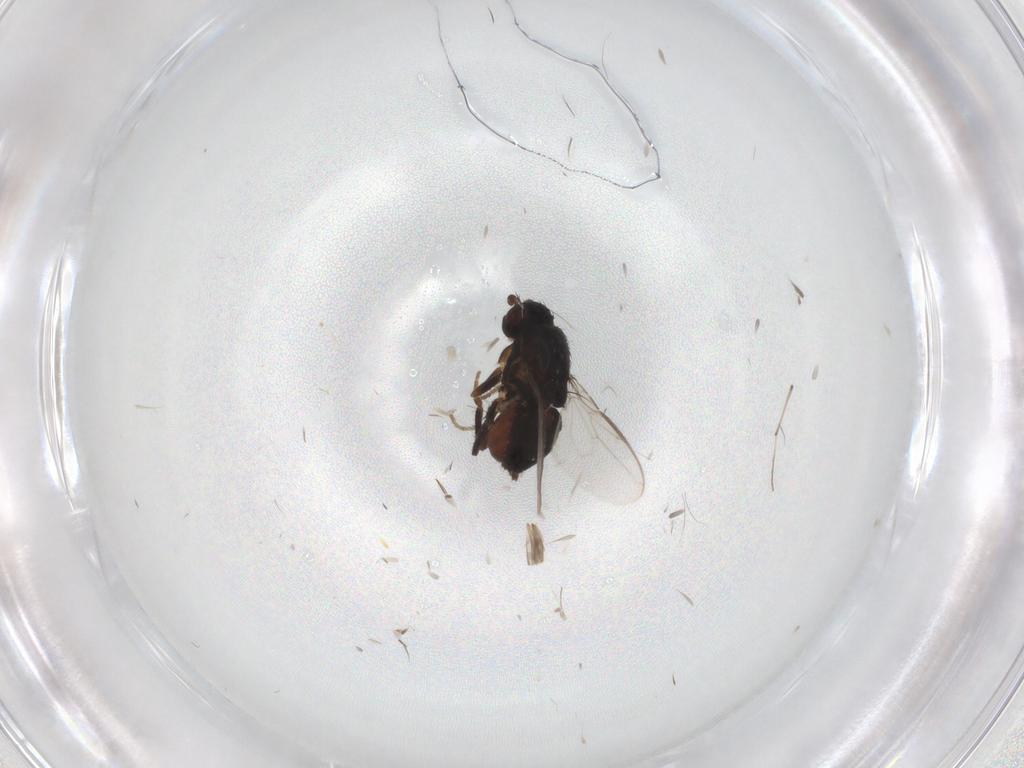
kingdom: Animalia
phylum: Arthropoda
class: Insecta
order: Diptera
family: Sphaeroceridae
